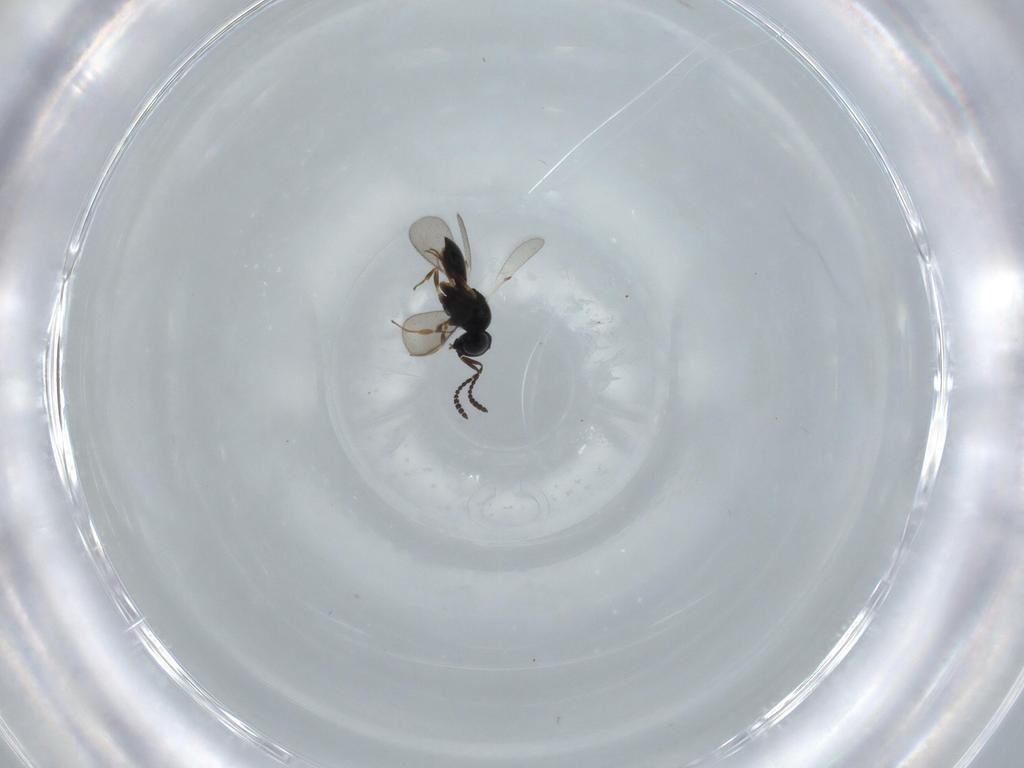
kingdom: Animalia
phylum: Arthropoda
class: Insecta
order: Hymenoptera
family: Scelionidae
